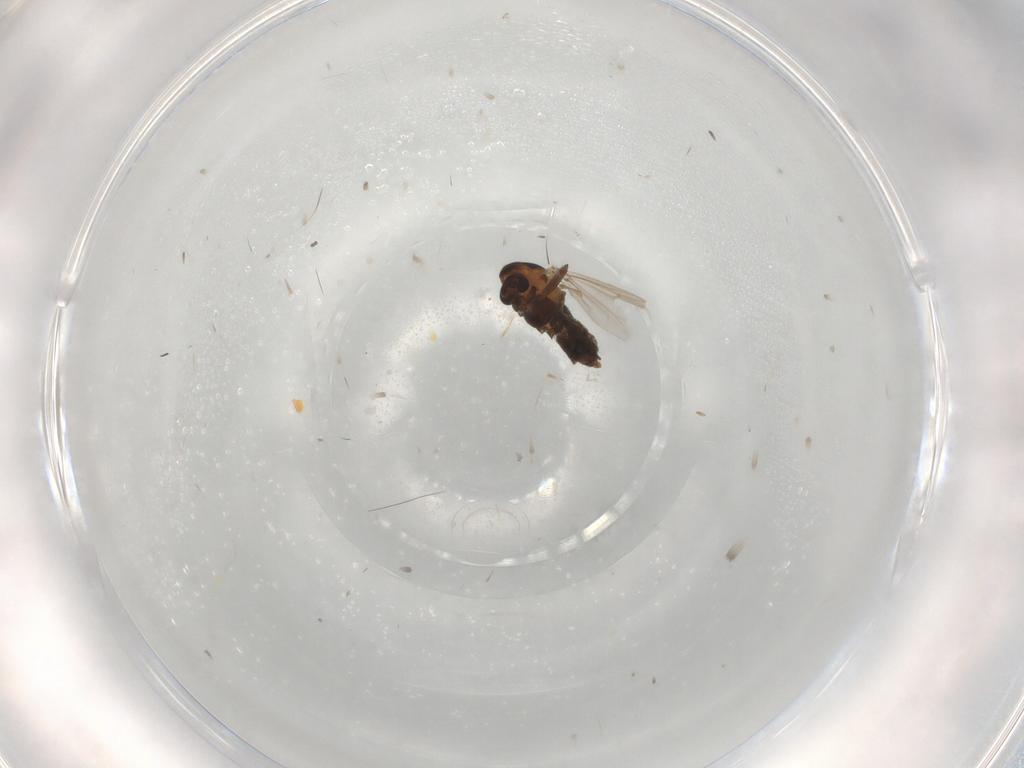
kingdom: Animalia
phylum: Arthropoda
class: Insecta
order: Diptera
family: Chironomidae
